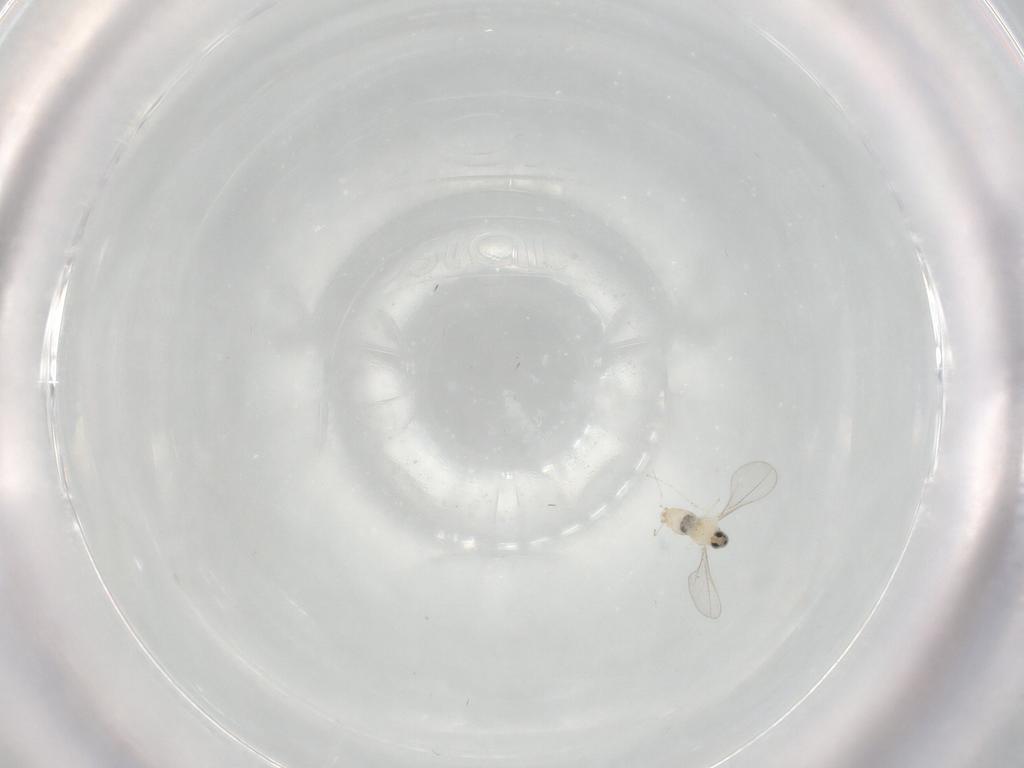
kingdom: Animalia
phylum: Arthropoda
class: Insecta
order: Diptera
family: Cecidomyiidae
